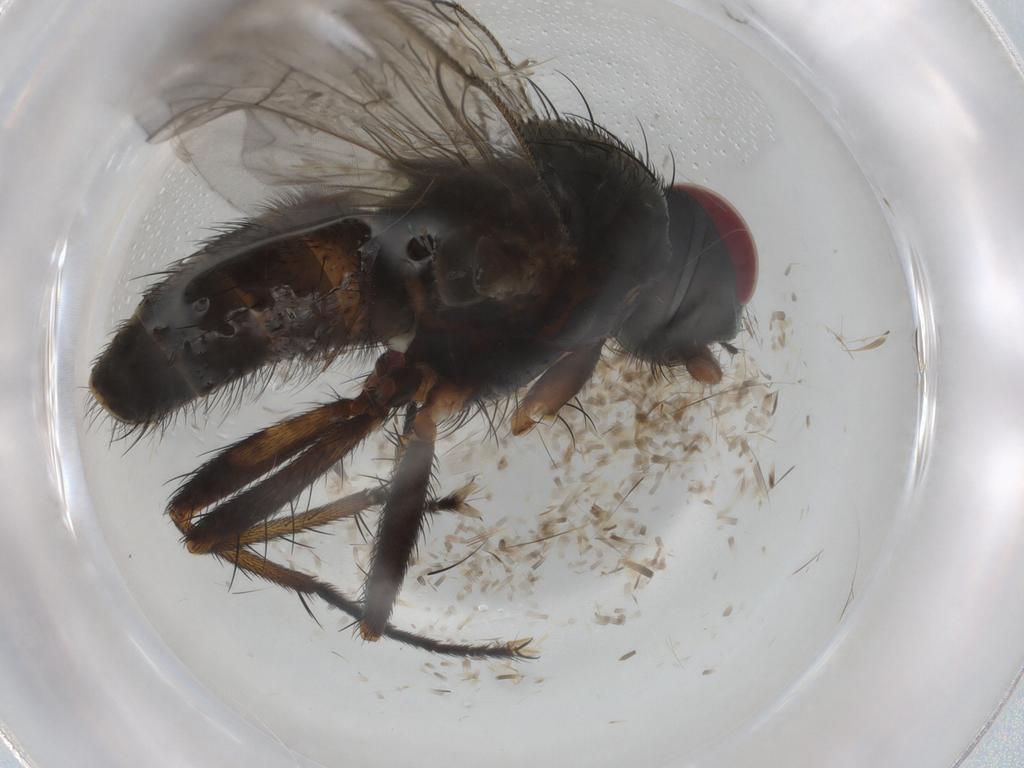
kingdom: Animalia
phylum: Arthropoda
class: Insecta
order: Diptera
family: Muscidae
